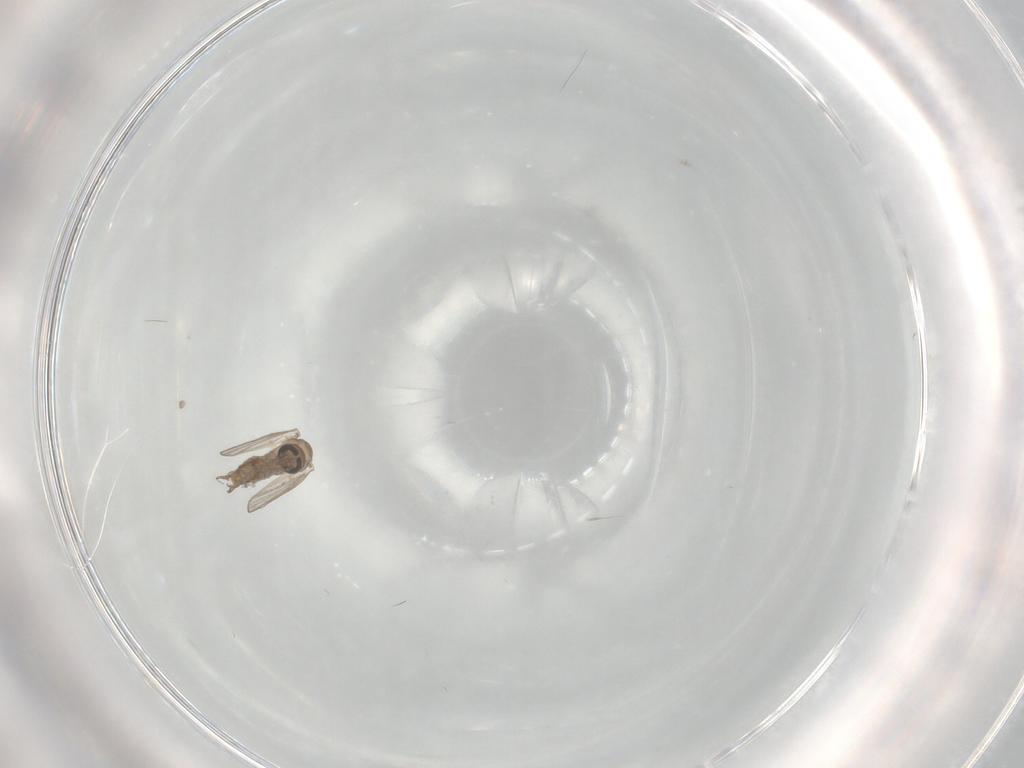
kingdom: Animalia
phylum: Arthropoda
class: Insecta
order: Diptera
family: Psychodidae
